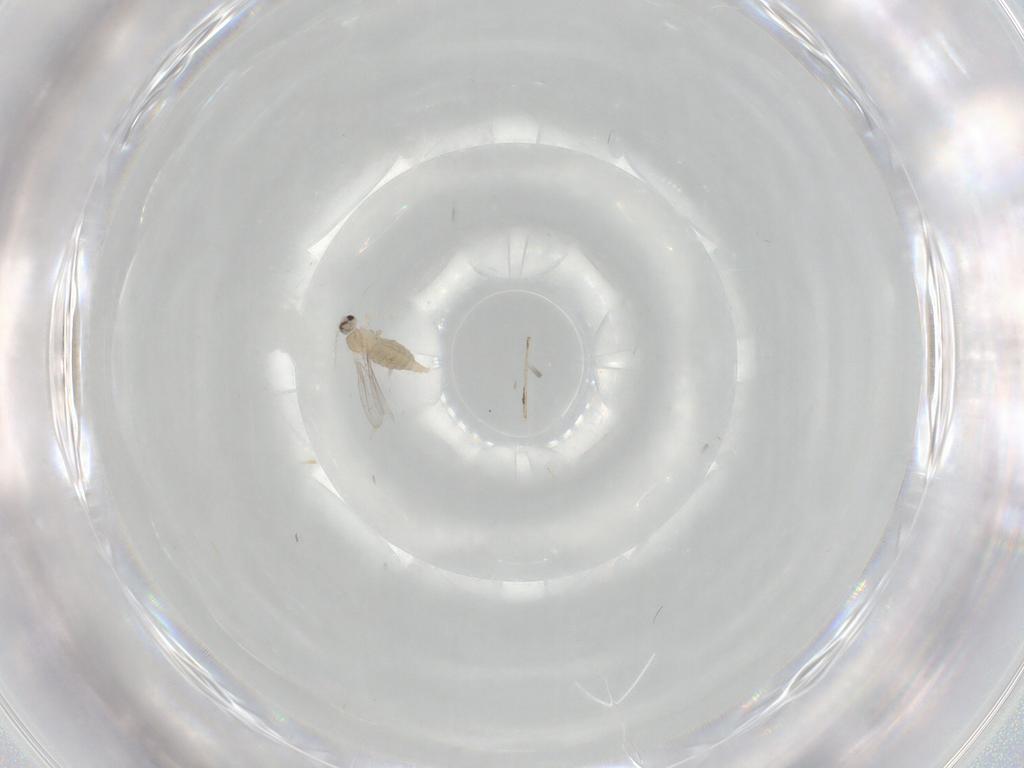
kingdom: Animalia
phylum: Arthropoda
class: Insecta
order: Diptera
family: Cecidomyiidae
